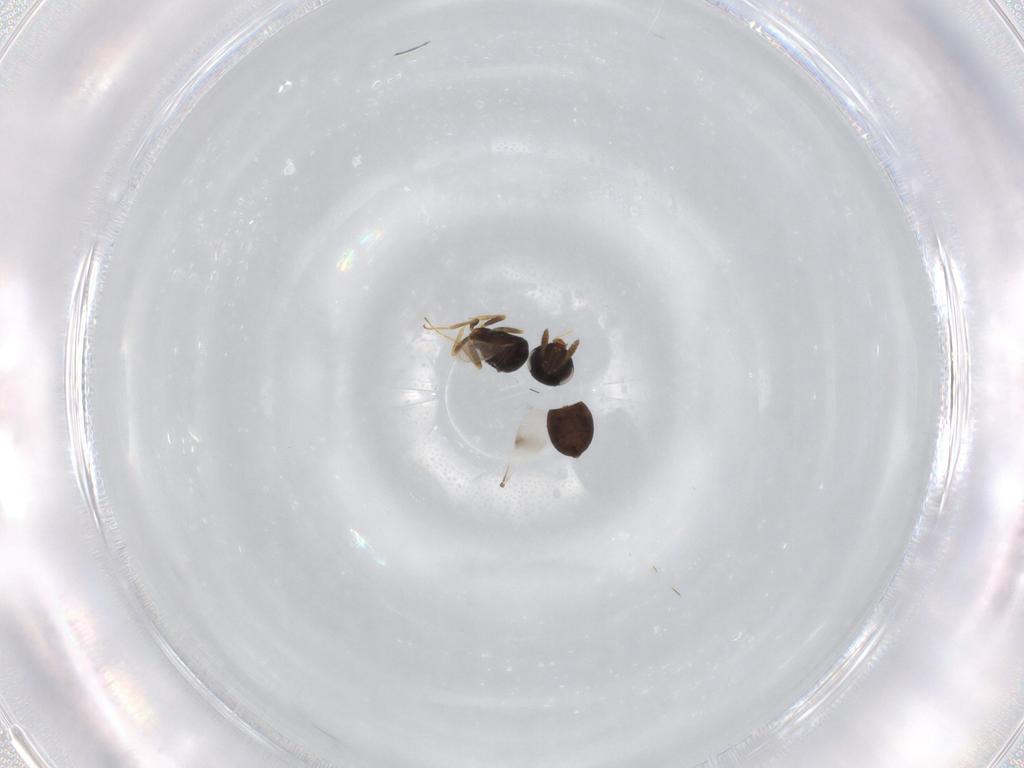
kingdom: Animalia
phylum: Arthropoda
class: Insecta
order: Hymenoptera
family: Scelionidae
